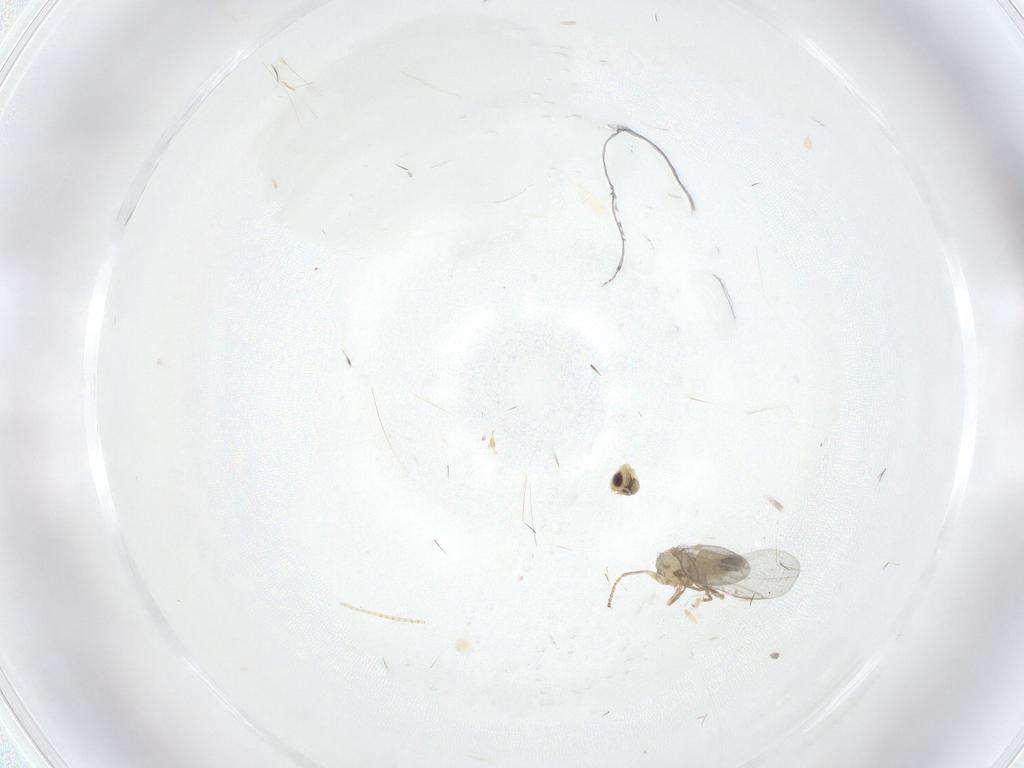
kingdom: Animalia
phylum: Arthropoda
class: Insecta
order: Diptera
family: Agromyzidae
